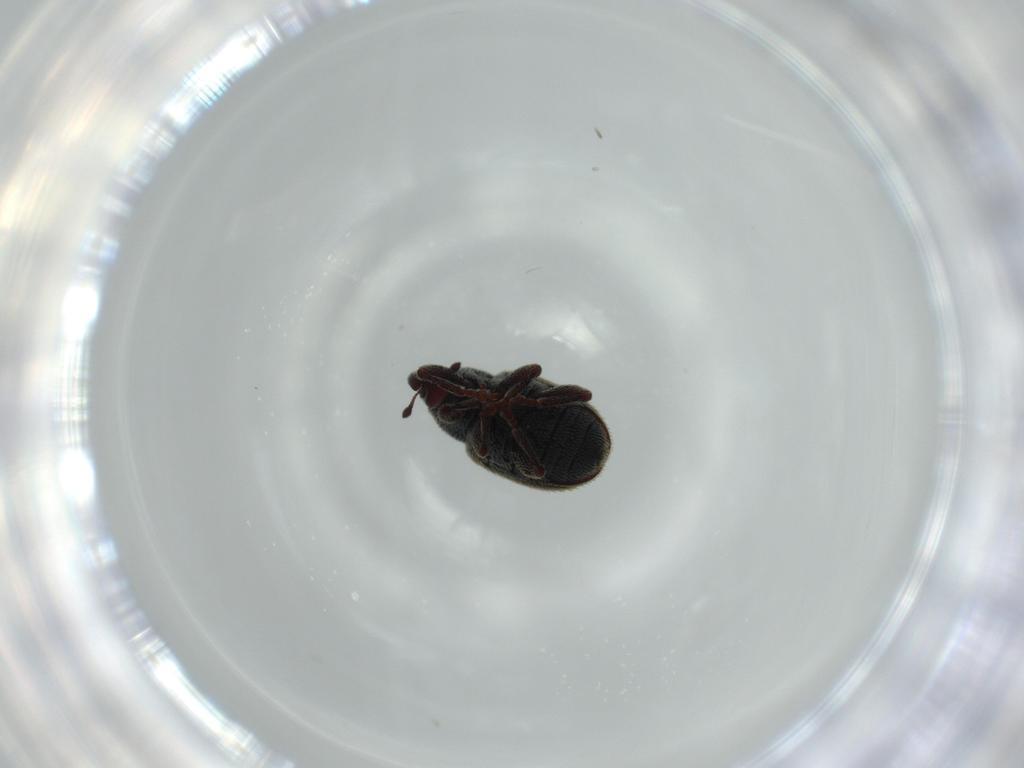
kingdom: Animalia
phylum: Arthropoda
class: Insecta
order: Coleoptera
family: Curculionidae
